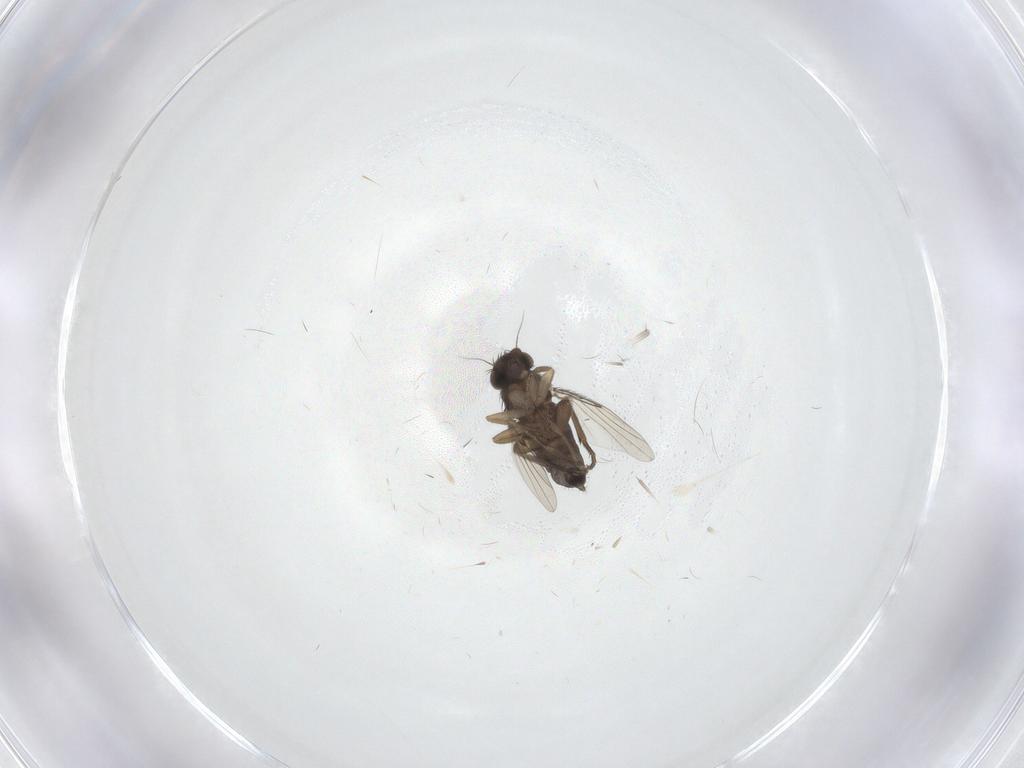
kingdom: Animalia
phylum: Arthropoda
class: Insecta
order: Diptera
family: Phoridae
